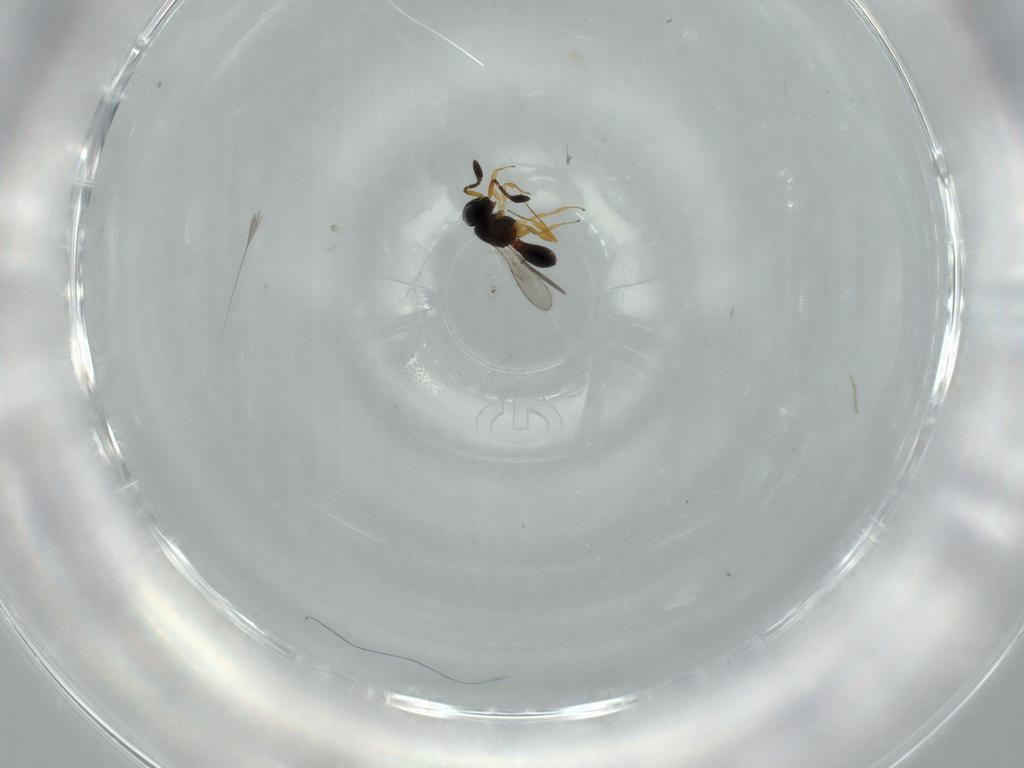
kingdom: Animalia
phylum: Arthropoda
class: Insecta
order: Hymenoptera
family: Scelionidae
